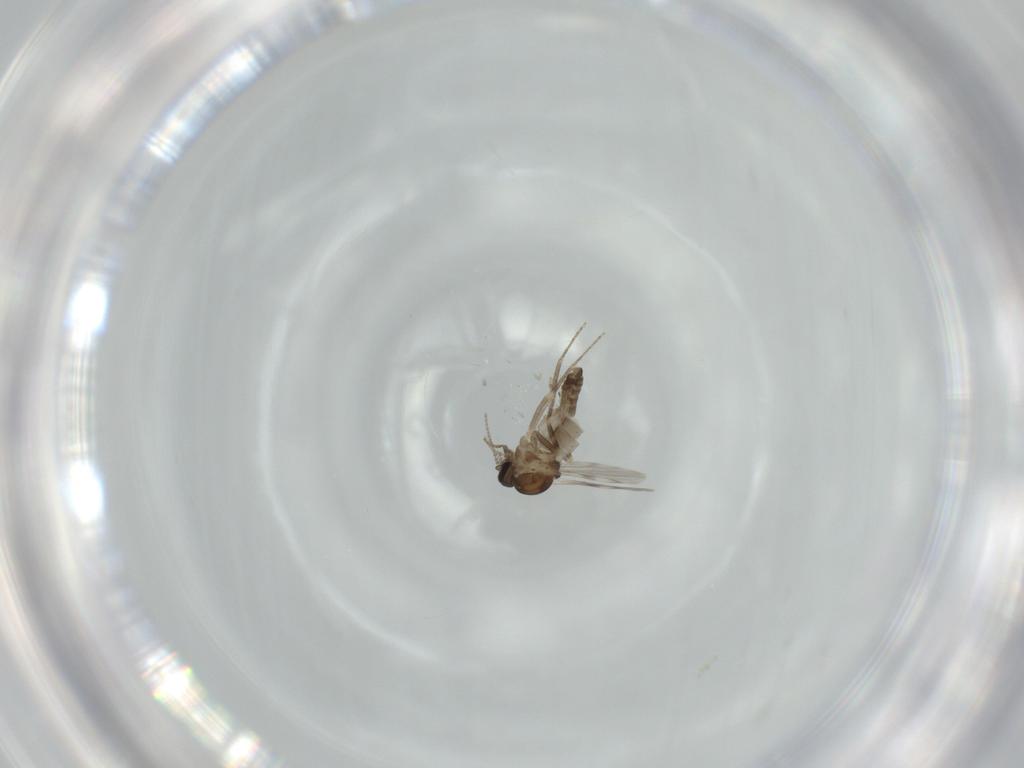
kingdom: Animalia
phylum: Arthropoda
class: Insecta
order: Diptera
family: Ceratopogonidae
